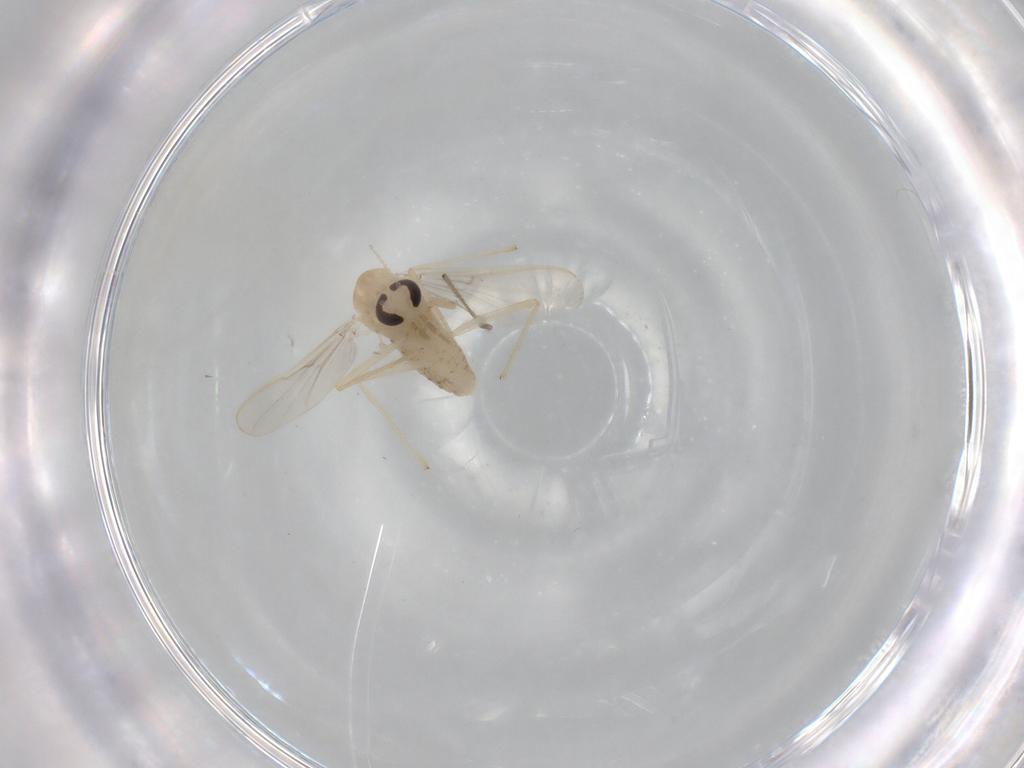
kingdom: Animalia
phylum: Arthropoda
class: Insecta
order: Diptera
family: Chironomidae
